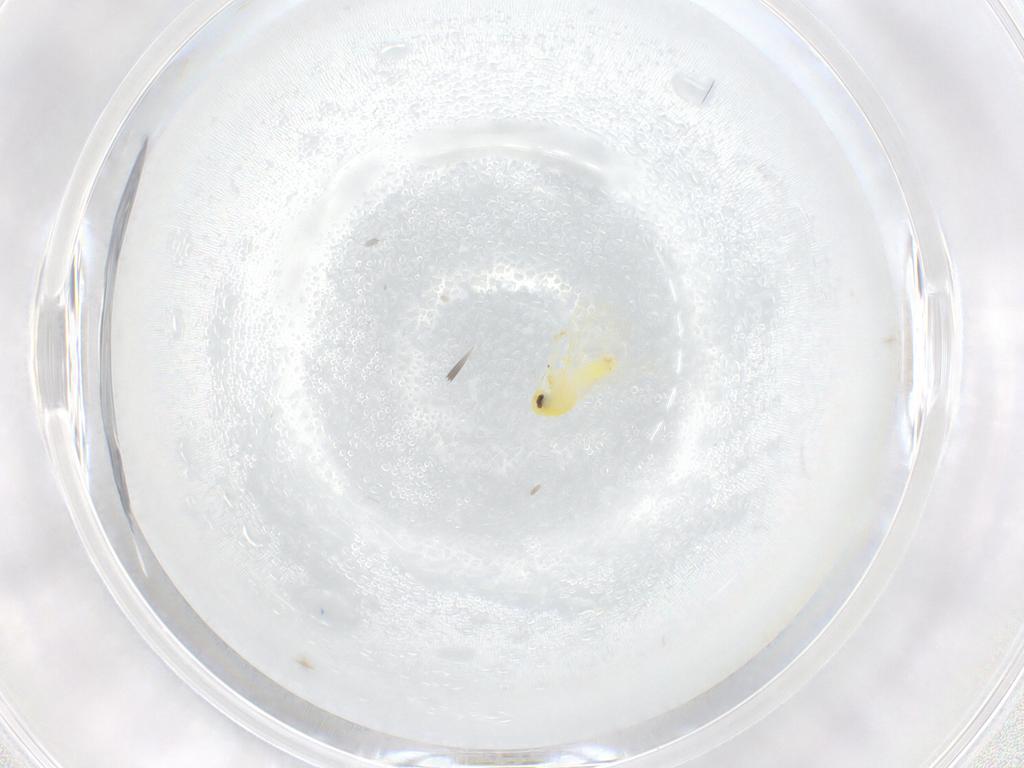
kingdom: Animalia
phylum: Arthropoda
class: Insecta
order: Hemiptera
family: Aleyrodidae
